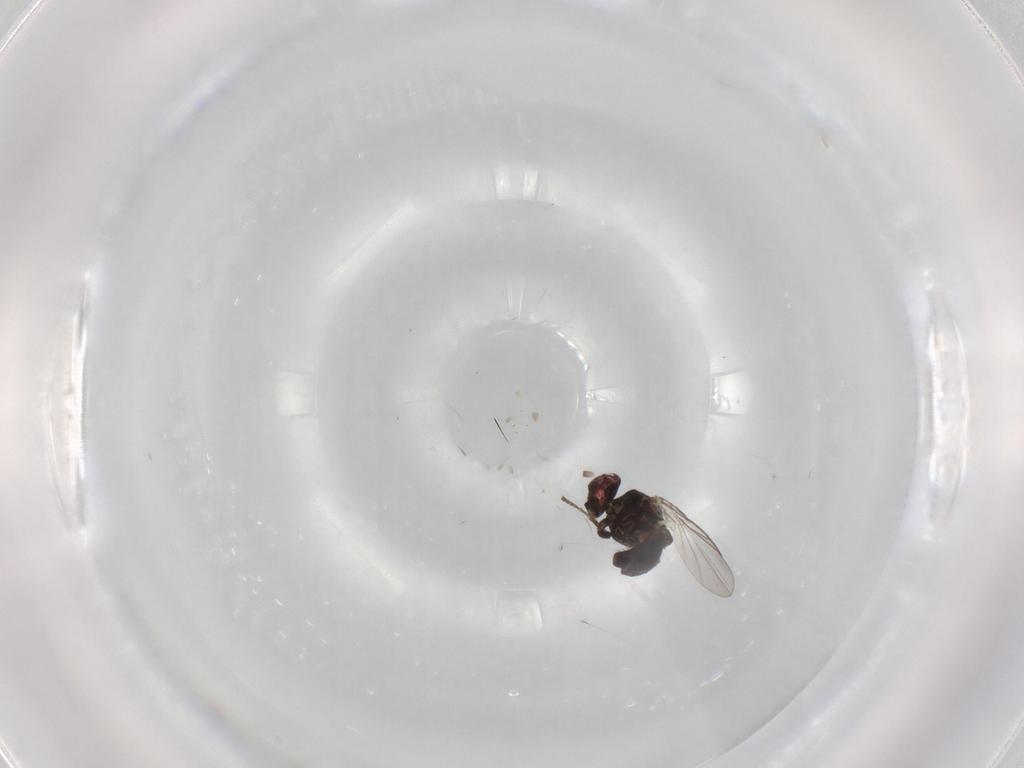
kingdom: Animalia
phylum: Arthropoda
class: Insecta
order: Diptera
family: Agromyzidae
